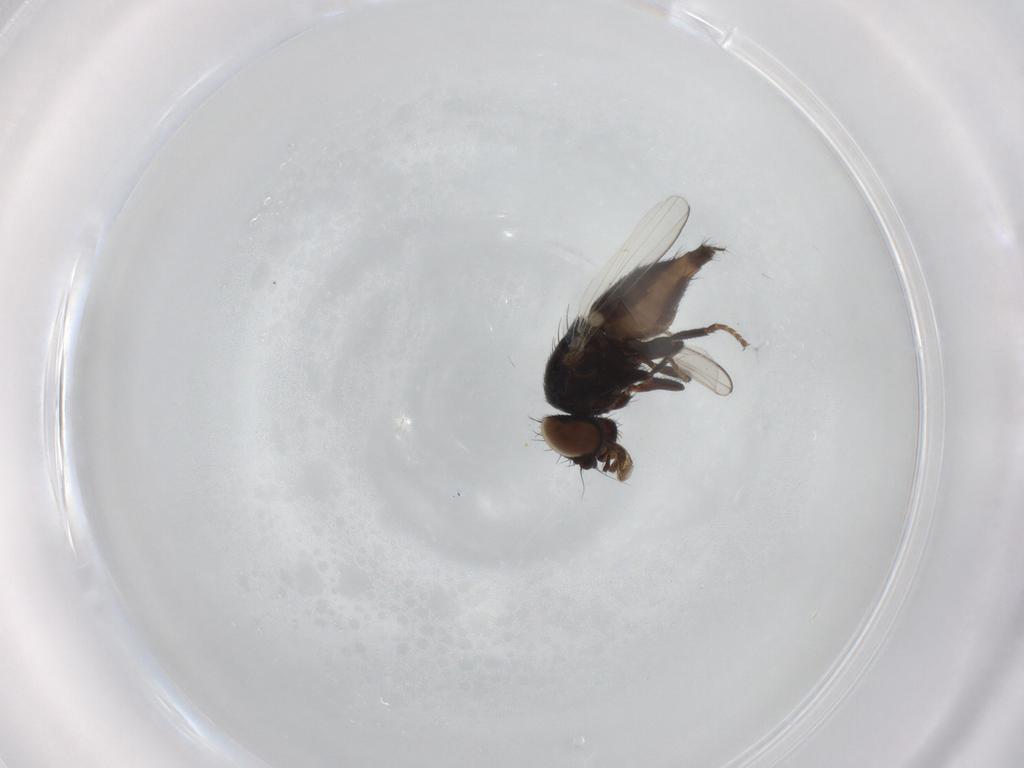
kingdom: Animalia
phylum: Arthropoda
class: Insecta
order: Diptera
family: Milichiidae
